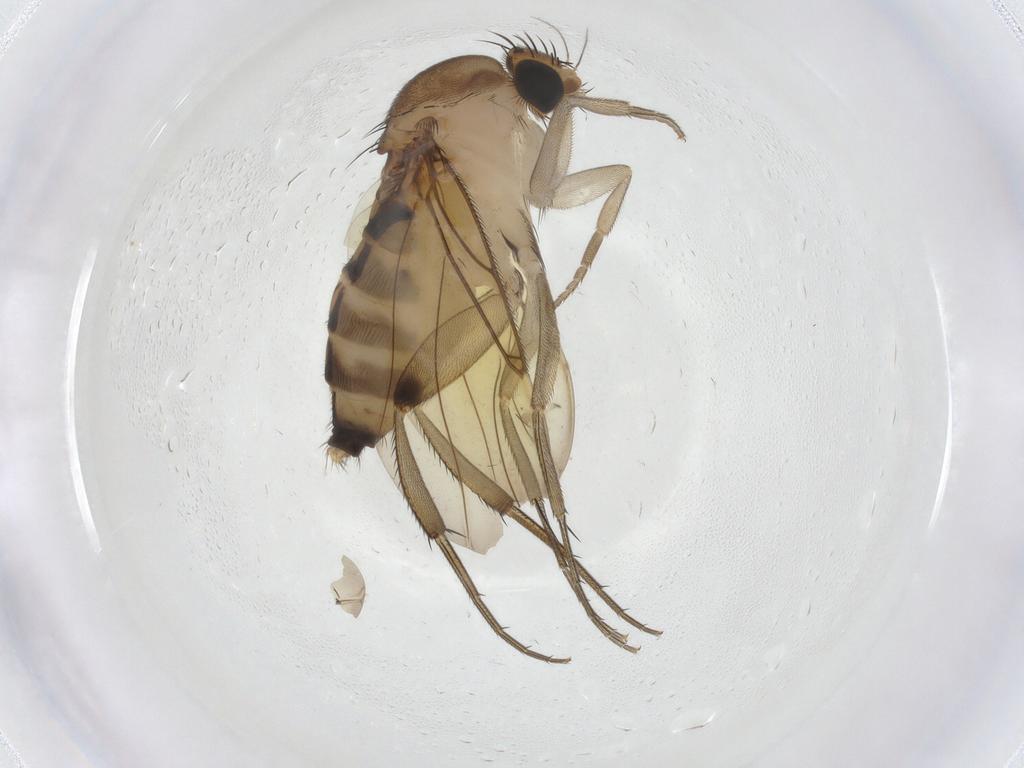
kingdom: Animalia
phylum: Arthropoda
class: Insecta
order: Diptera
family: Phoridae
